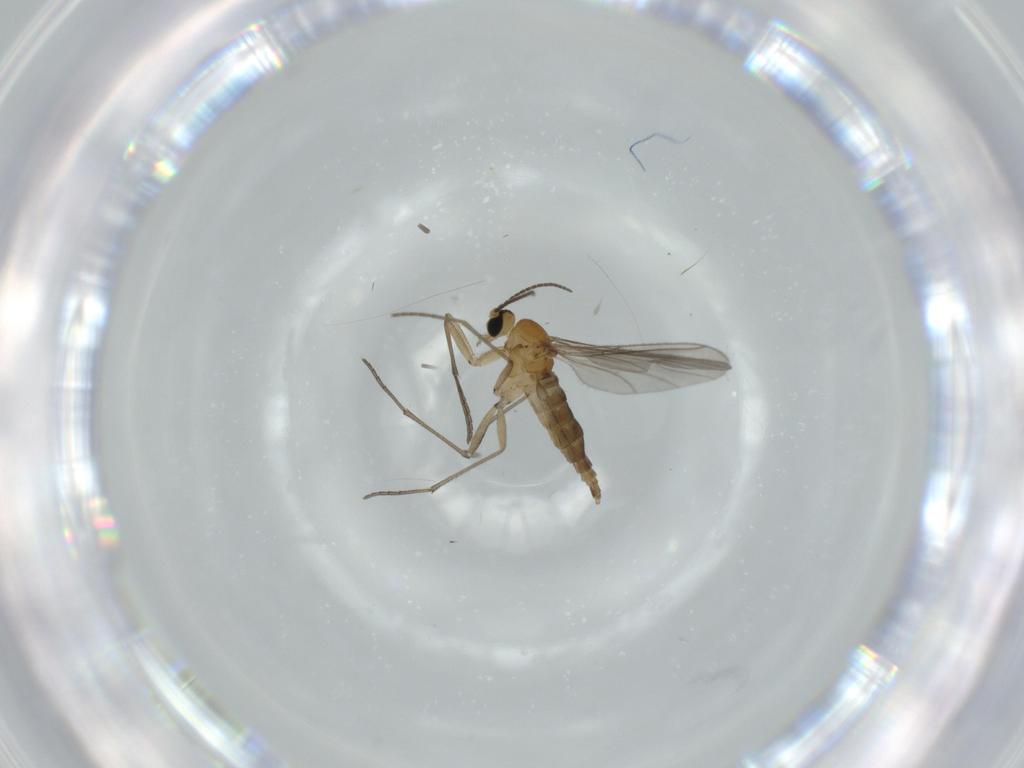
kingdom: Animalia
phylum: Arthropoda
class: Insecta
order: Diptera
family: Sciaridae
